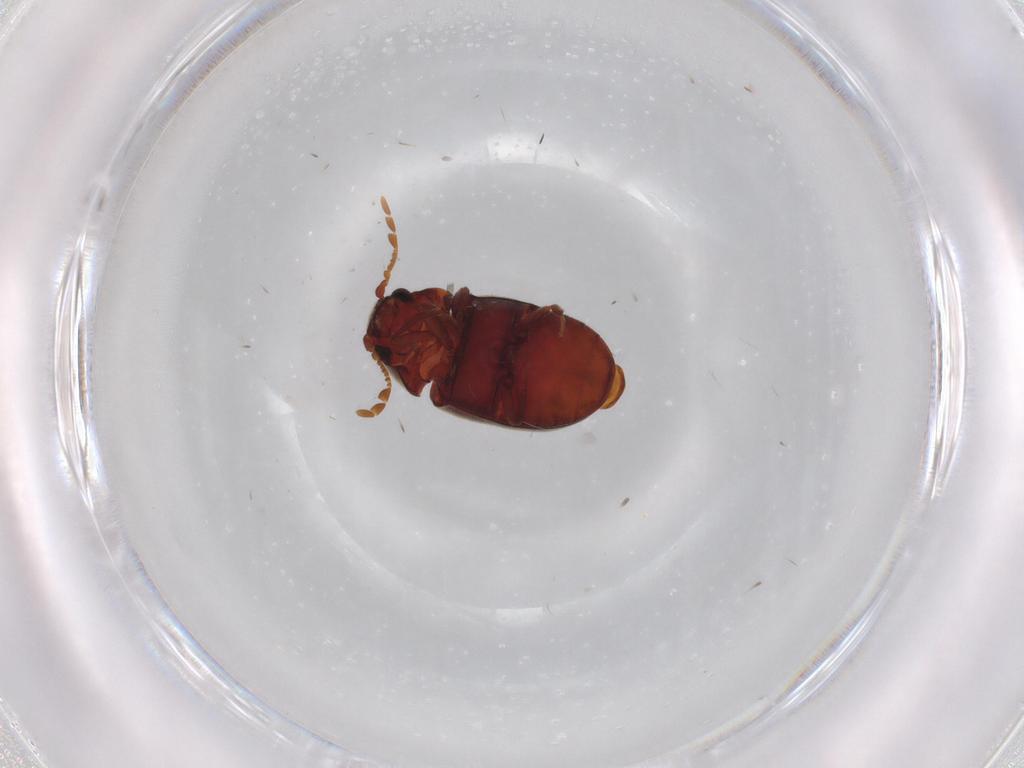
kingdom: Animalia
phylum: Arthropoda
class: Insecta
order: Coleoptera
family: Ptinidae
